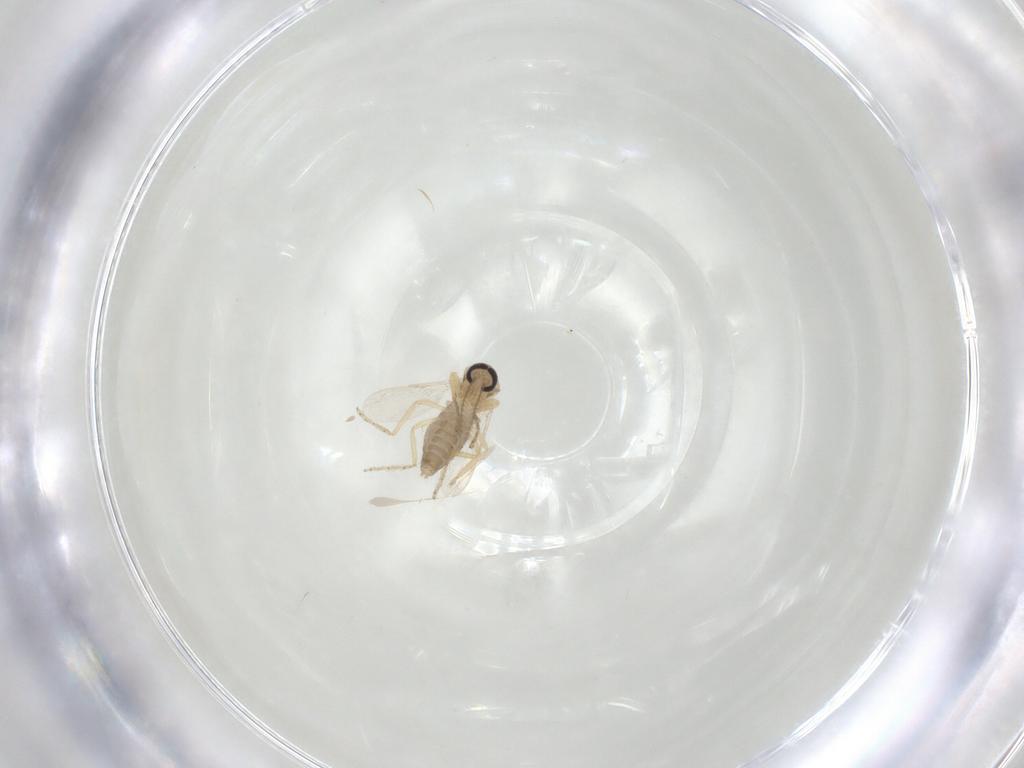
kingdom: Animalia
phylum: Arthropoda
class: Insecta
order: Diptera
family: Ceratopogonidae
